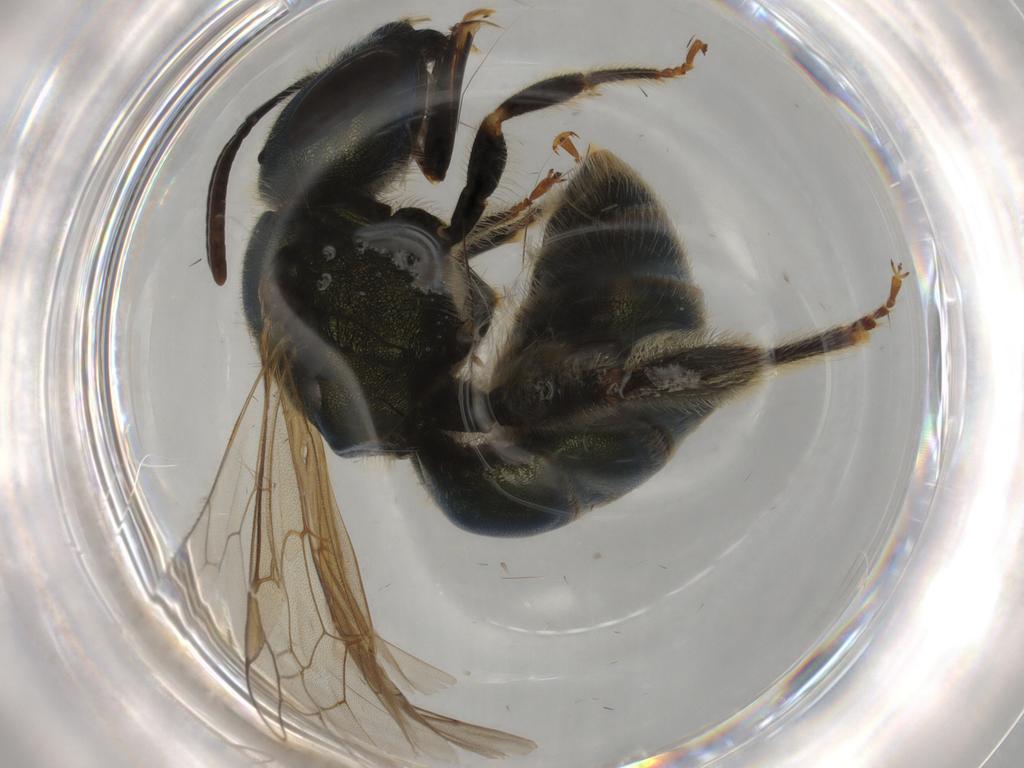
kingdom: Animalia
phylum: Arthropoda
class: Insecta
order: Hymenoptera
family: Halictidae
